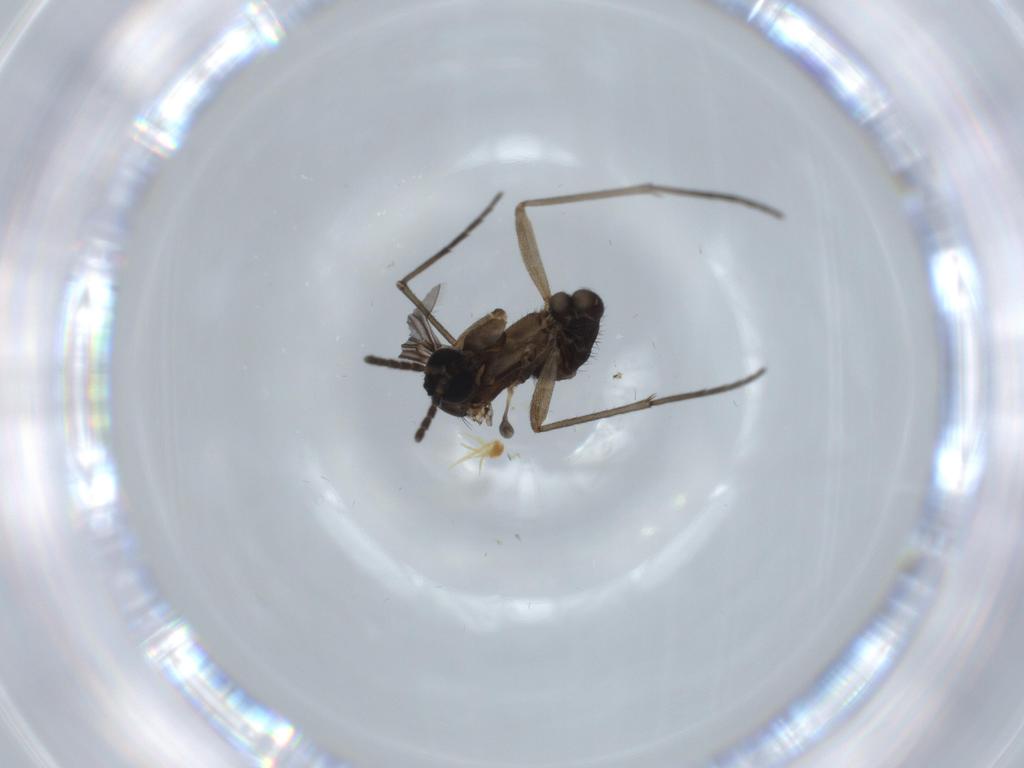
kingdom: Animalia
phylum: Arthropoda
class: Insecta
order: Diptera
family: Sciaridae
